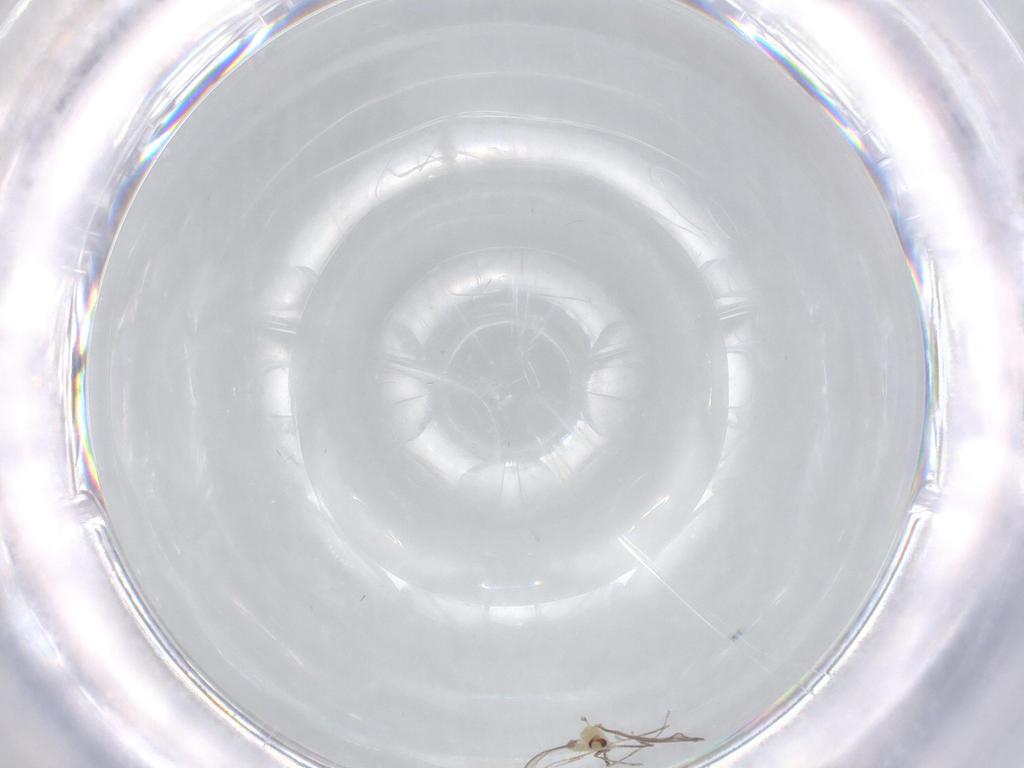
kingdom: Animalia
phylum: Arthropoda
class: Insecta
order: Diptera
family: Cecidomyiidae
